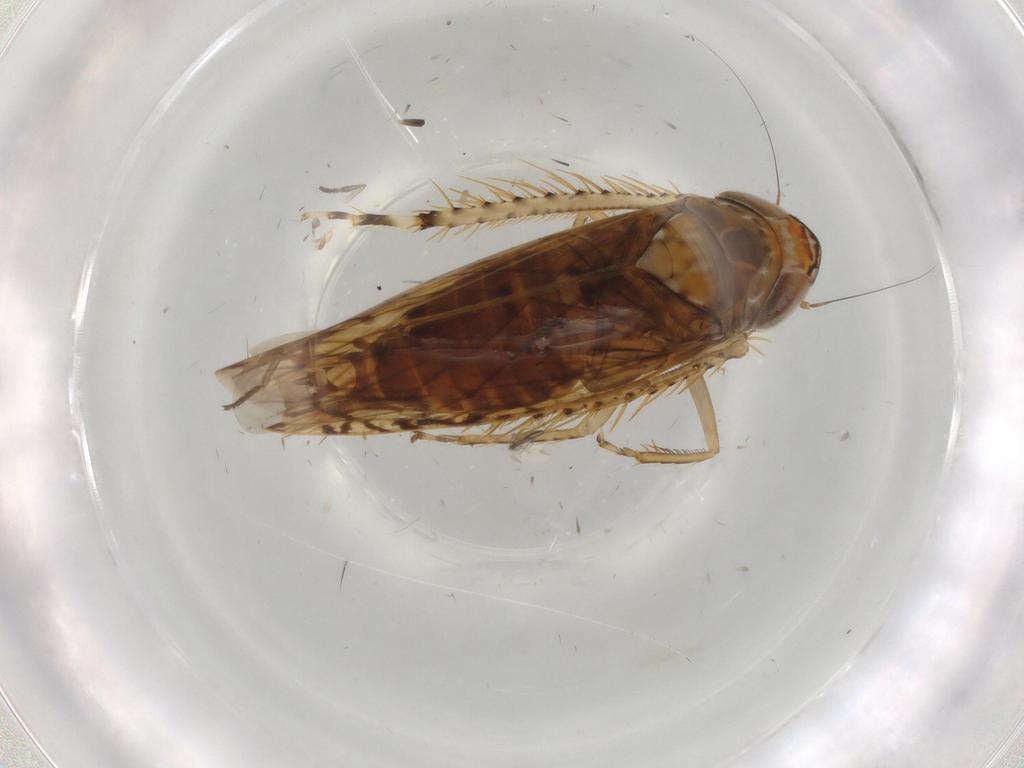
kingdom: Animalia
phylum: Arthropoda
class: Insecta
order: Hemiptera
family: Cicadellidae
